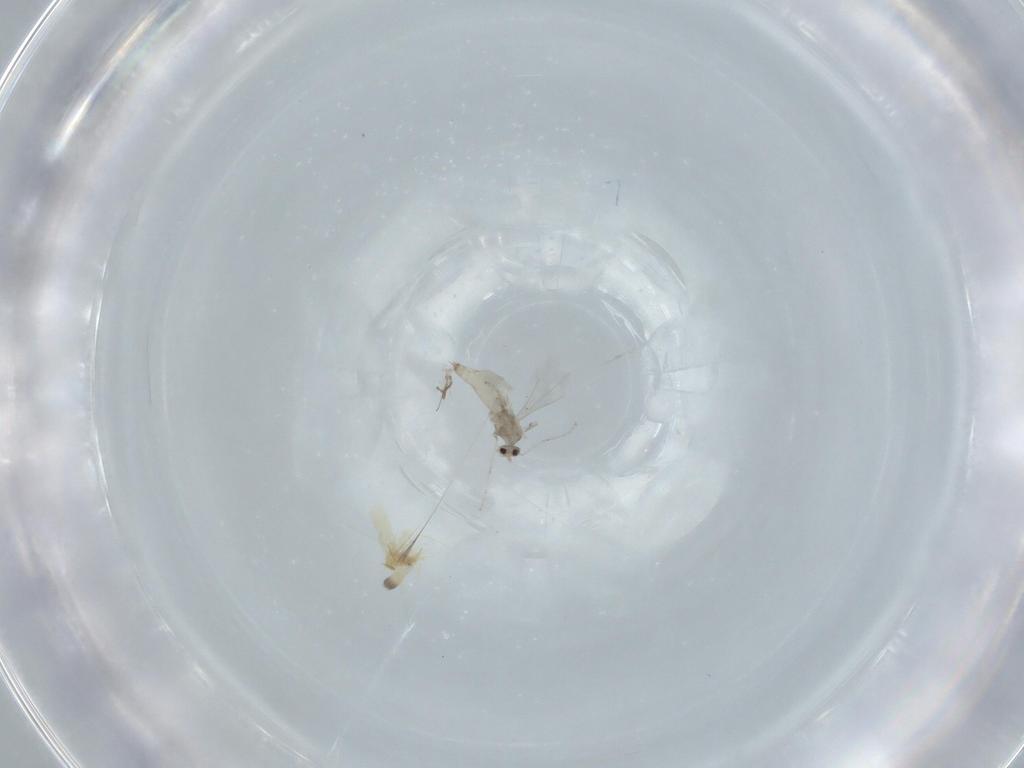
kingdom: Animalia
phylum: Arthropoda
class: Insecta
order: Diptera
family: Cecidomyiidae
